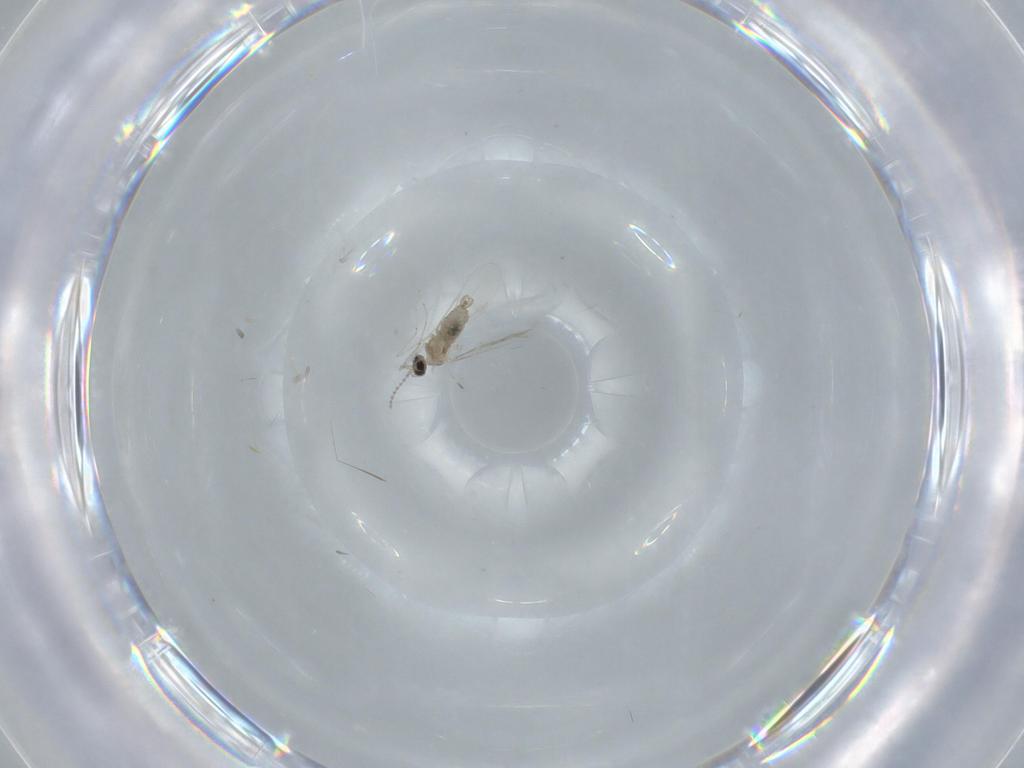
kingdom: Animalia
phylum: Arthropoda
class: Insecta
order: Diptera
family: Cecidomyiidae
